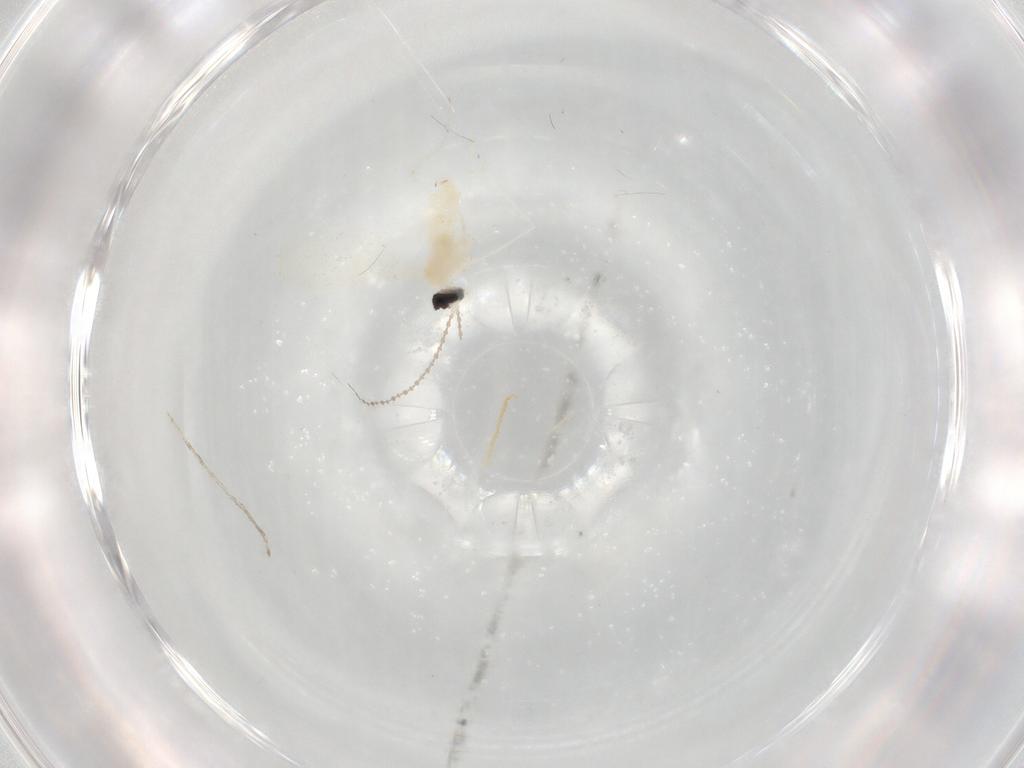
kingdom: Animalia
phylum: Arthropoda
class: Insecta
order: Diptera
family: Cecidomyiidae
